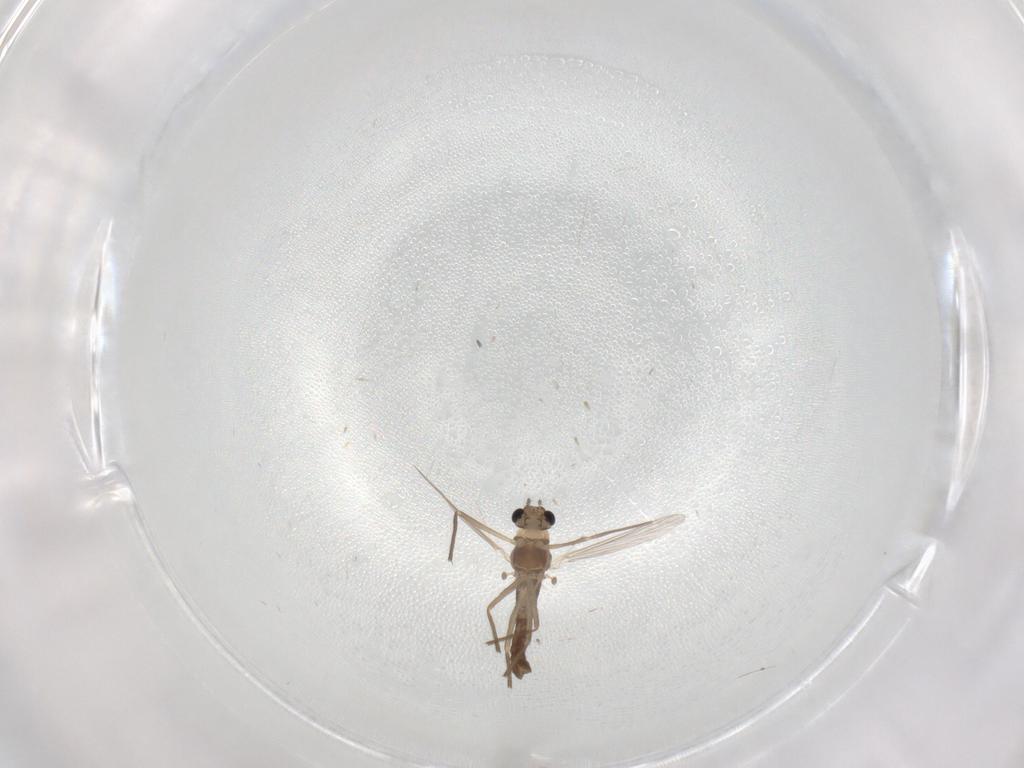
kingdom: Animalia
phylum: Arthropoda
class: Insecta
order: Diptera
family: Chironomidae
